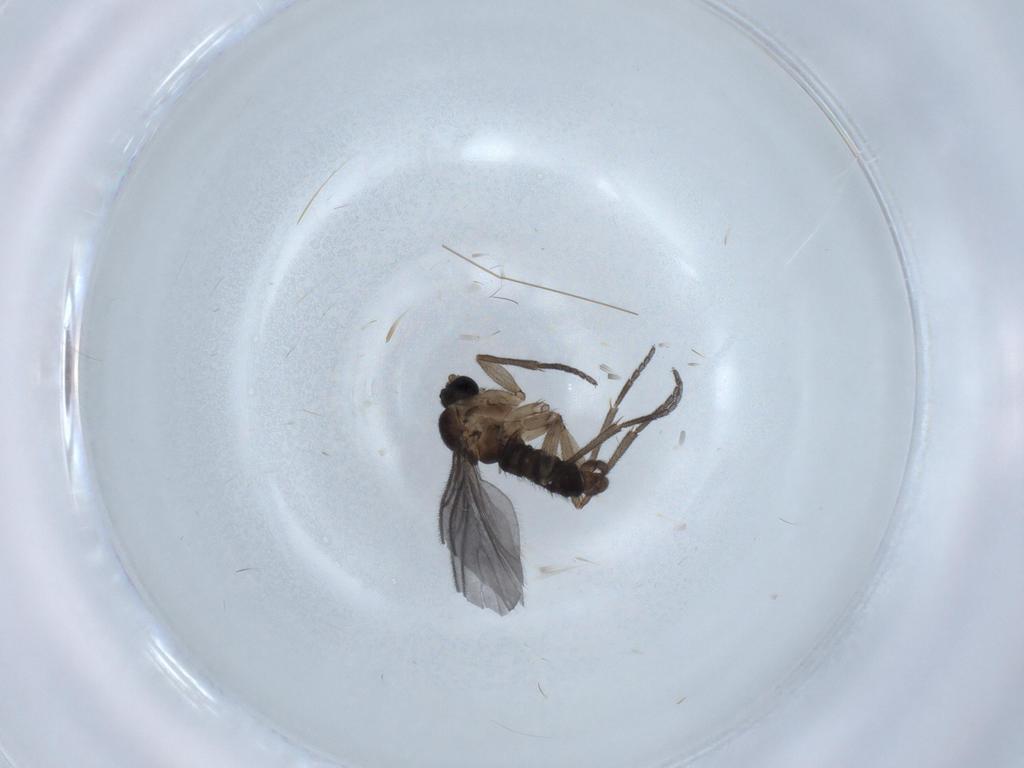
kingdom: Animalia
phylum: Arthropoda
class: Insecta
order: Diptera
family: Sciaridae
